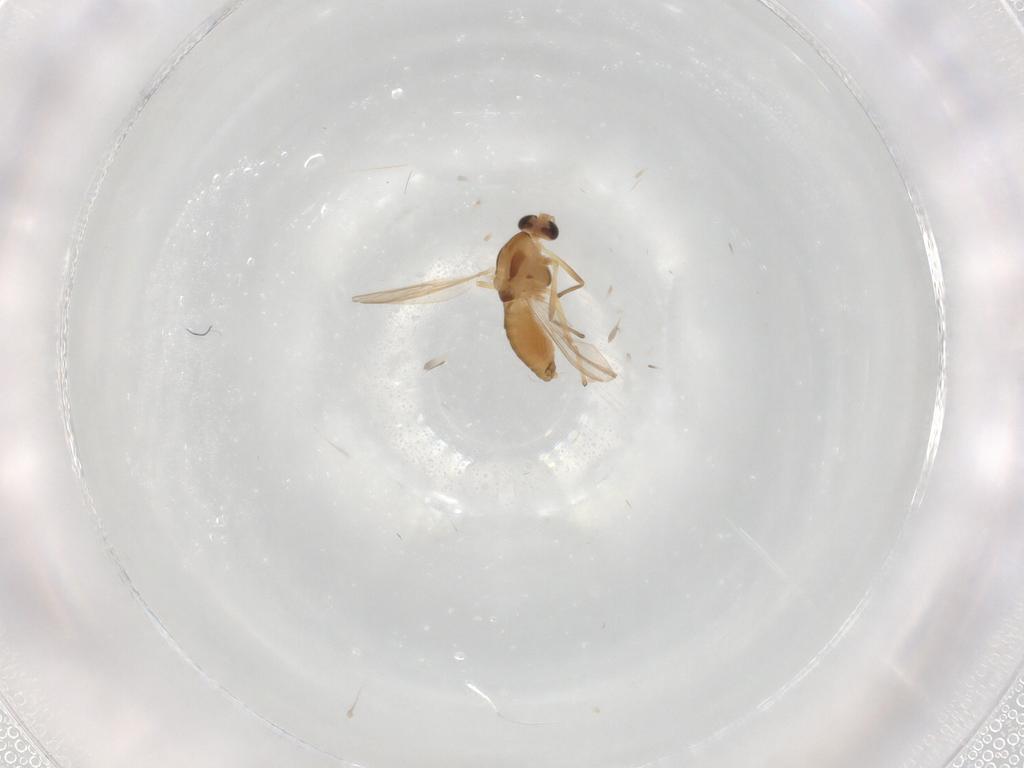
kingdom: Animalia
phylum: Arthropoda
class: Insecta
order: Diptera
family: Chironomidae
